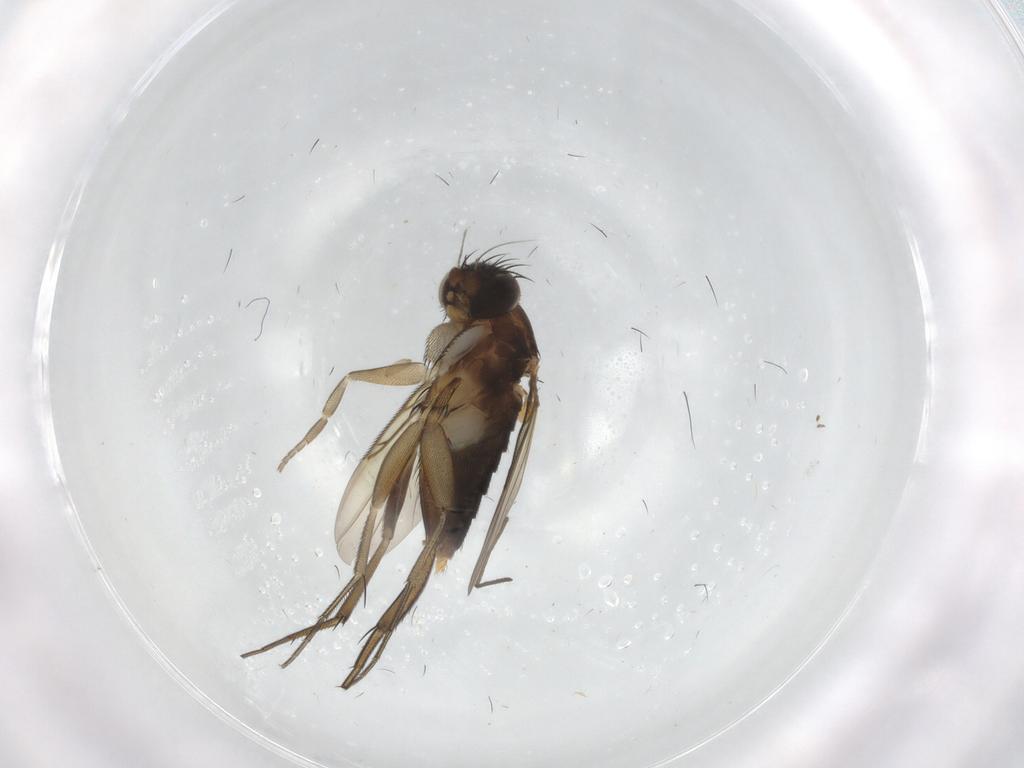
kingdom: Animalia
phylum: Arthropoda
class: Insecta
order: Diptera
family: Phoridae
